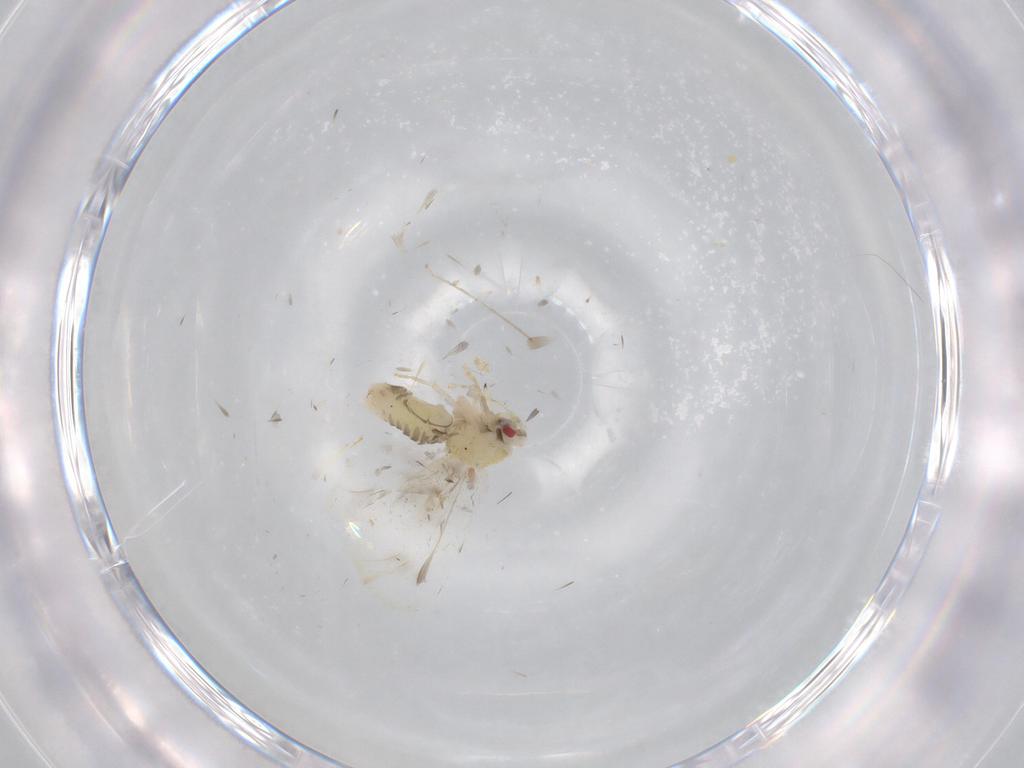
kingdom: Animalia
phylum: Arthropoda
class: Insecta
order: Hemiptera
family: Aleyrodidae
